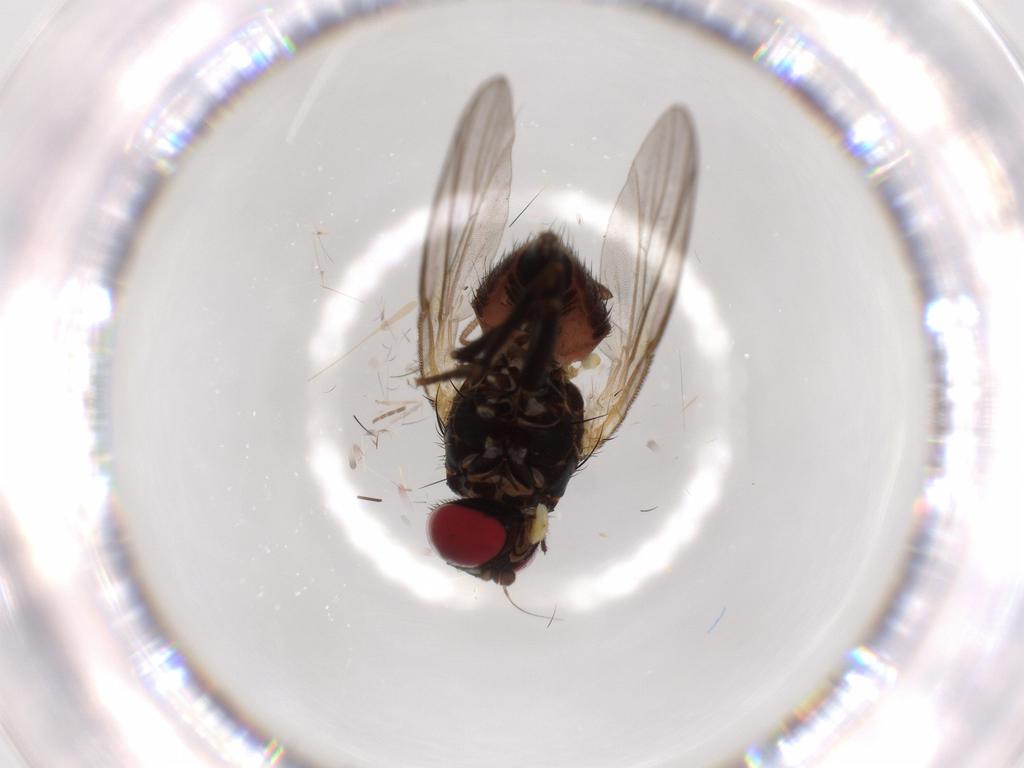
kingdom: Animalia
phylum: Arthropoda
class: Insecta
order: Diptera
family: Agromyzidae
